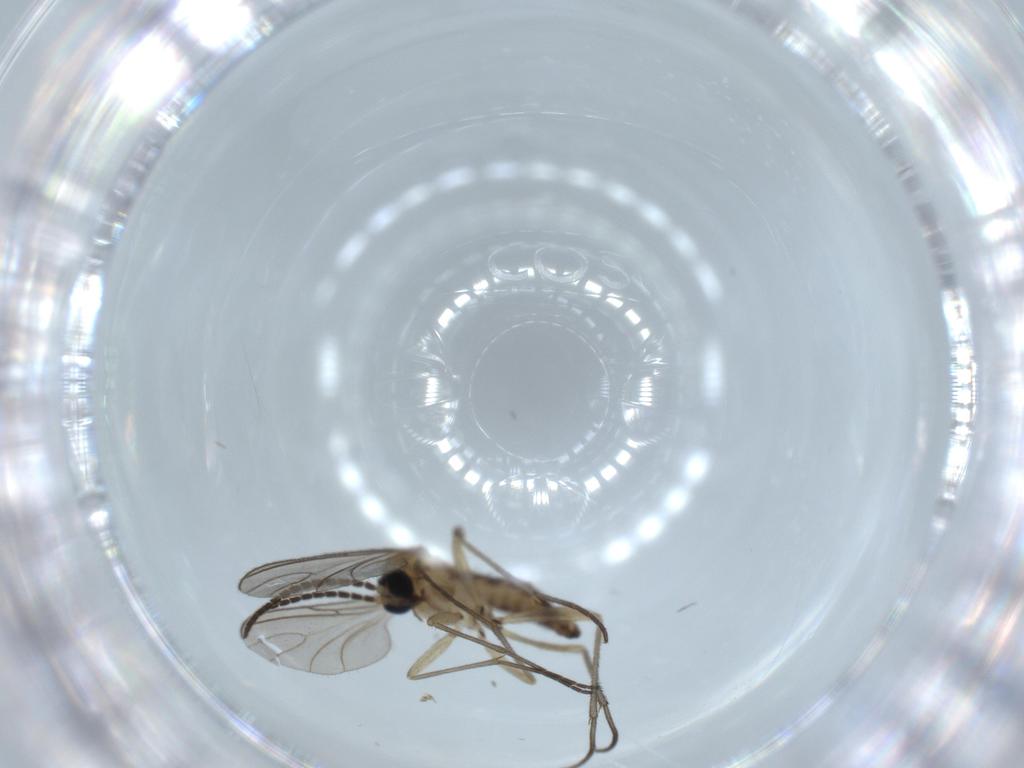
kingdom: Animalia
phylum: Arthropoda
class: Insecta
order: Diptera
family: Sciaridae
